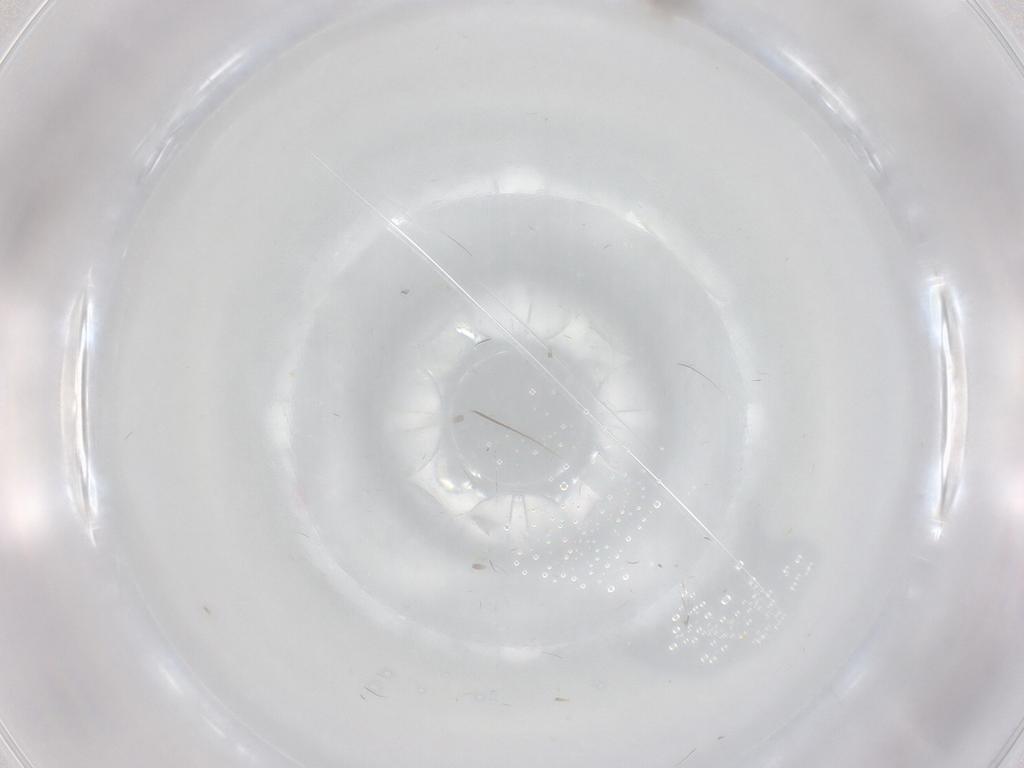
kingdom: Animalia
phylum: Arthropoda
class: Insecta
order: Diptera
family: Cecidomyiidae
